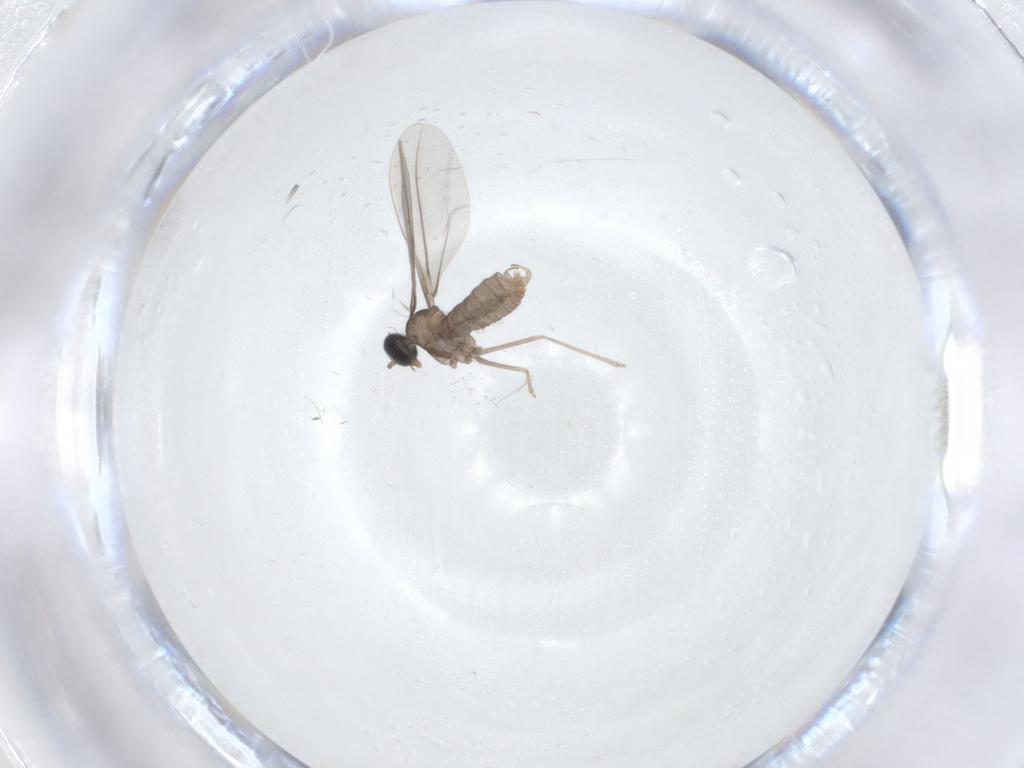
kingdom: Animalia
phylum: Arthropoda
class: Insecta
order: Diptera
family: Cecidomyiidae
